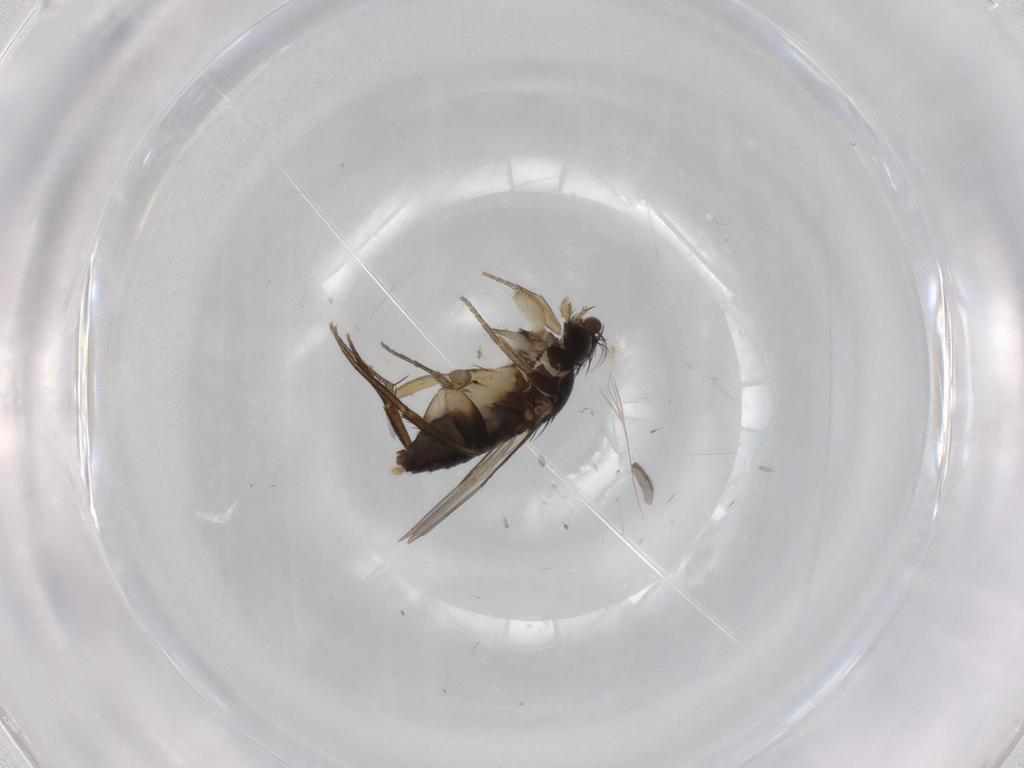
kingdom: Animalia
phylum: Arthropoda
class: Insecta
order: Diptera
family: Phoridae
